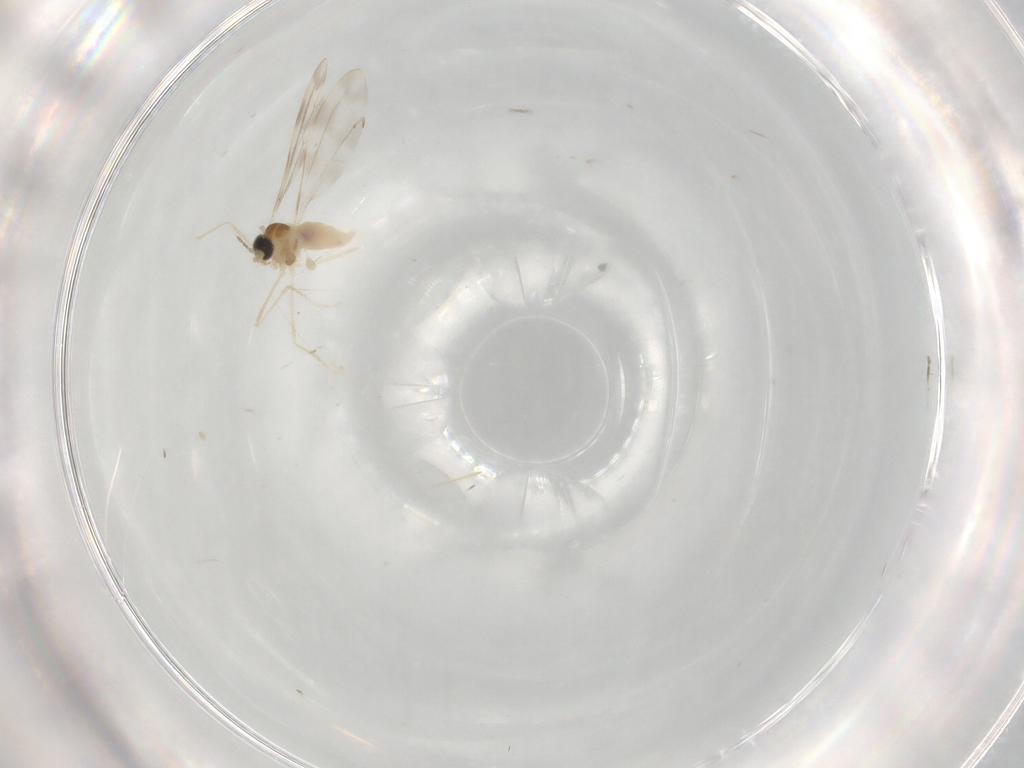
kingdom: Animalia
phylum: Arthropoda
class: Insecta
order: Diptera
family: Cecidomyiidae
